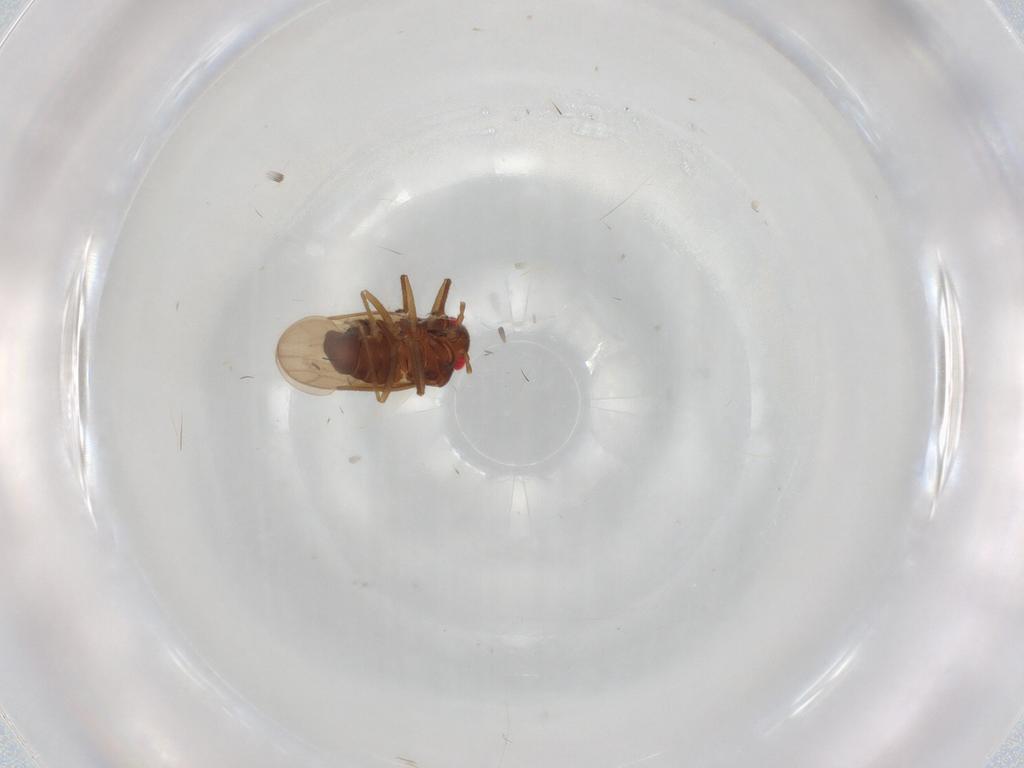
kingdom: Animalia
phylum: Arthropoda
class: Insecta
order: Hemiptera
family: Schizopteridae
